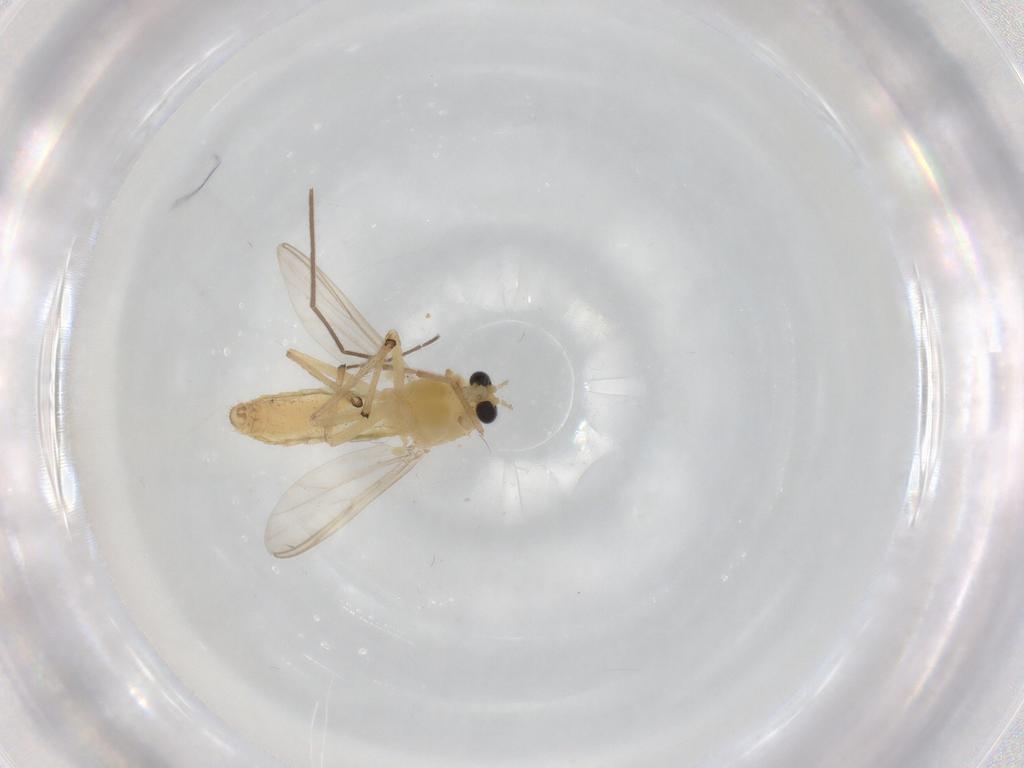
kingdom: Animalia
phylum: Arthropoda
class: Insecta
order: Diptera
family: Chironomidae
